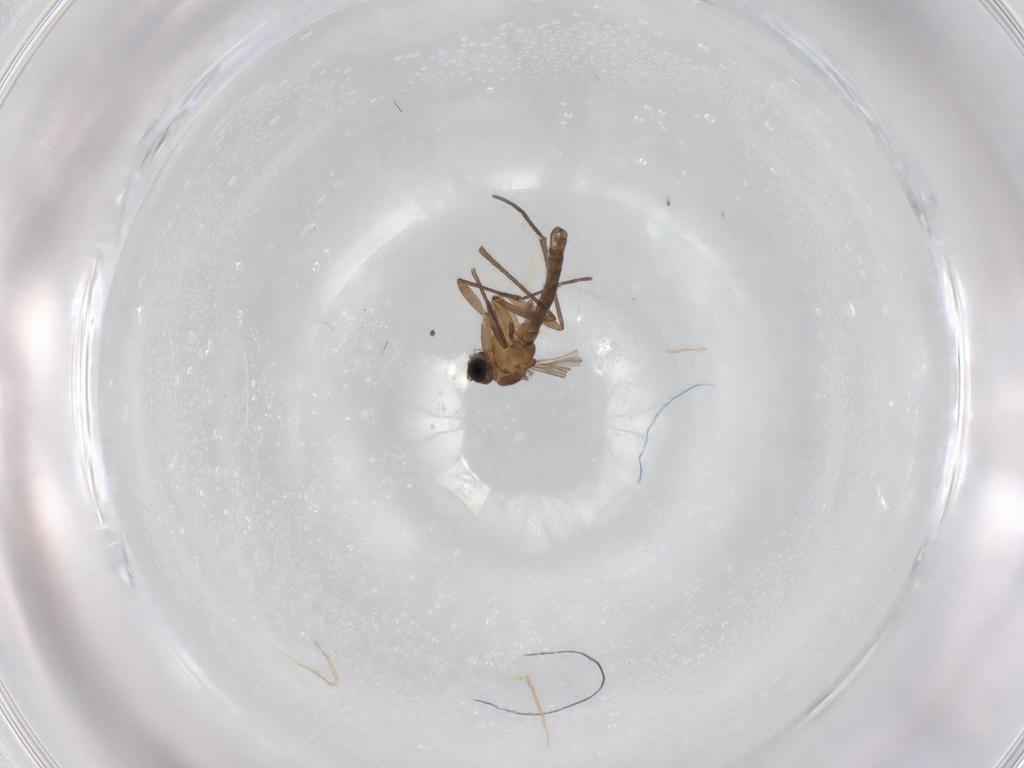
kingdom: Animalia
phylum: Arthropoda
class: Insecta
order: Diptera
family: Sciaridae
